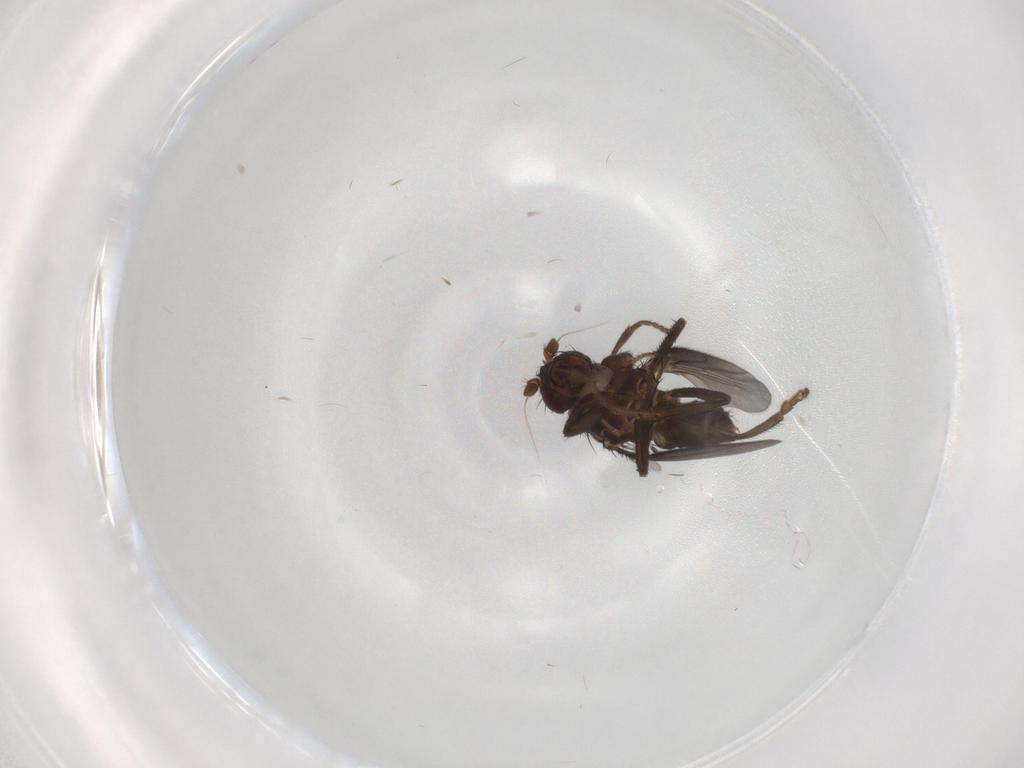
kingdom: Animalia
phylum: Arthropoda
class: Insecta
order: Diptera
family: Sphaeroceridae
